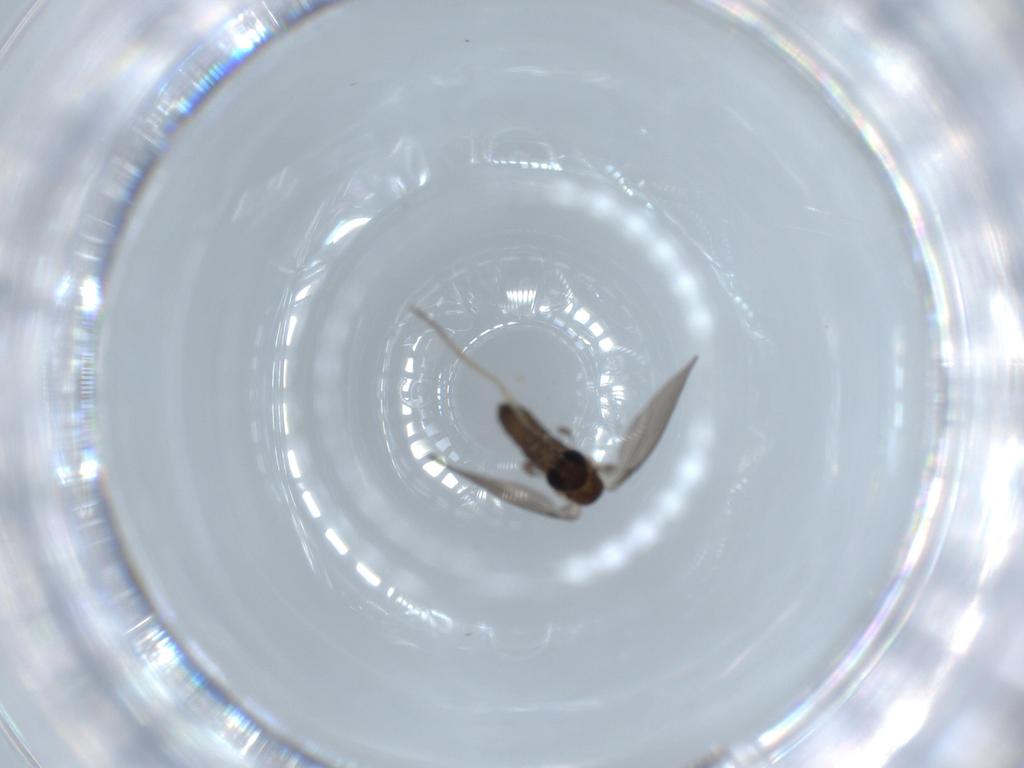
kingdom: Animalia
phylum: Arthropoda
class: Insecta
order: Diptera
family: Psychodidae
